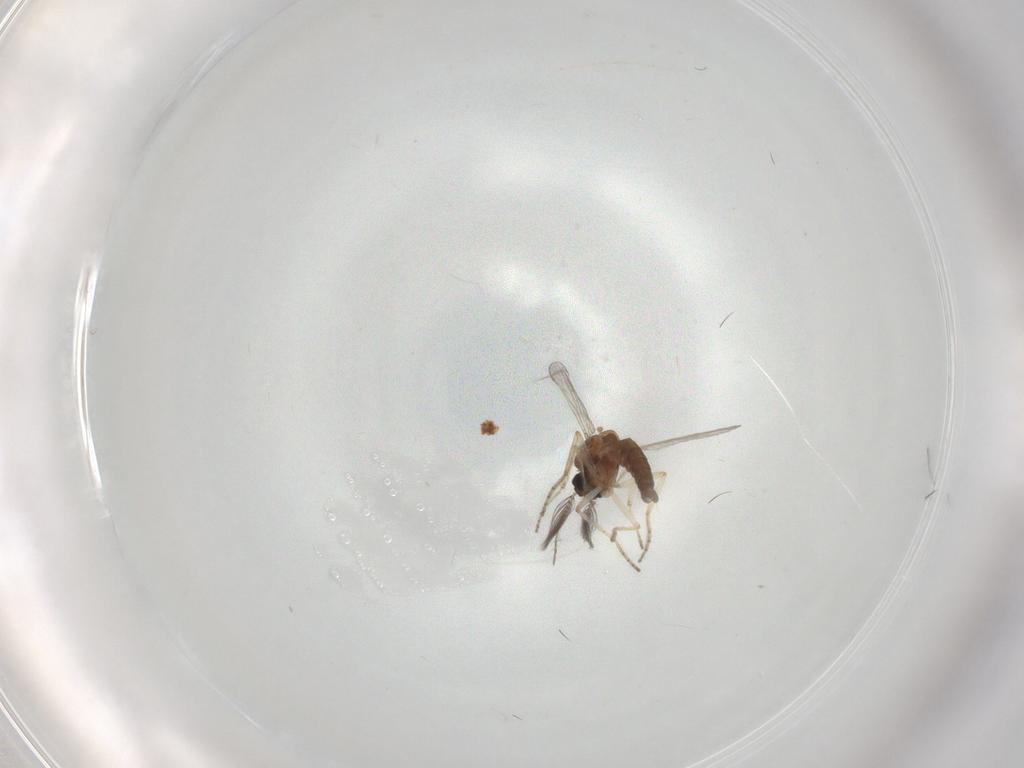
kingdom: Animalia
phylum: Arthropoda
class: Insecta
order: Diptera
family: Ceratopogonidae
